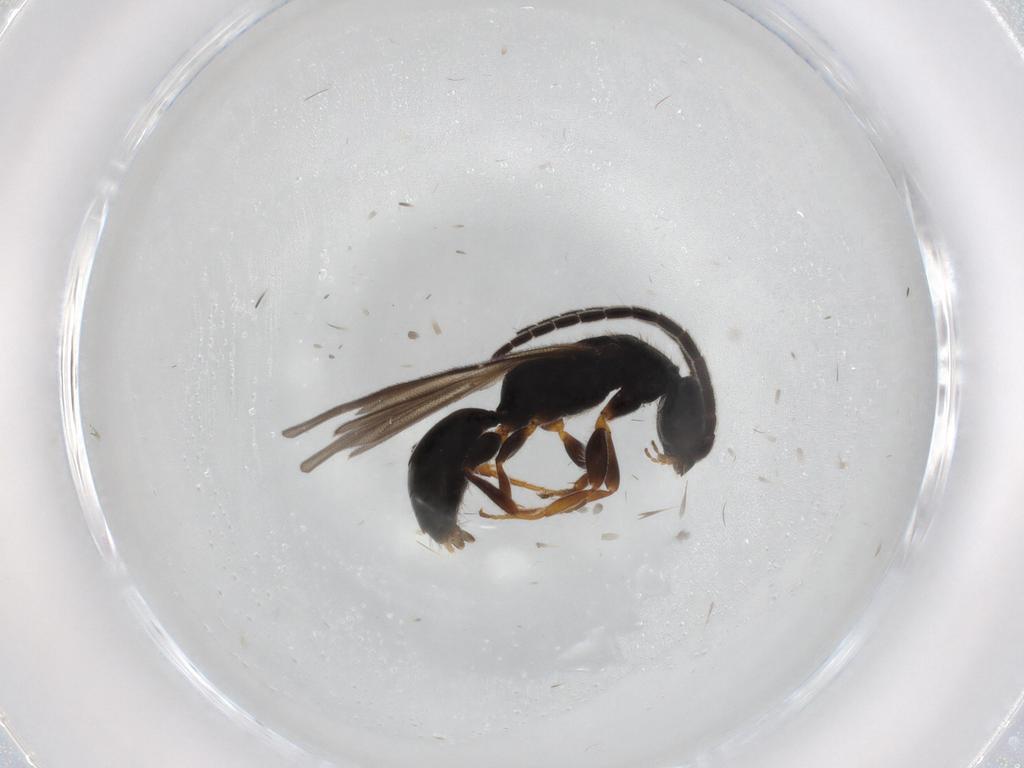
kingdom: Animalia
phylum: Arthropoda
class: Insecta
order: Hymenoptera
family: Bethylidae
